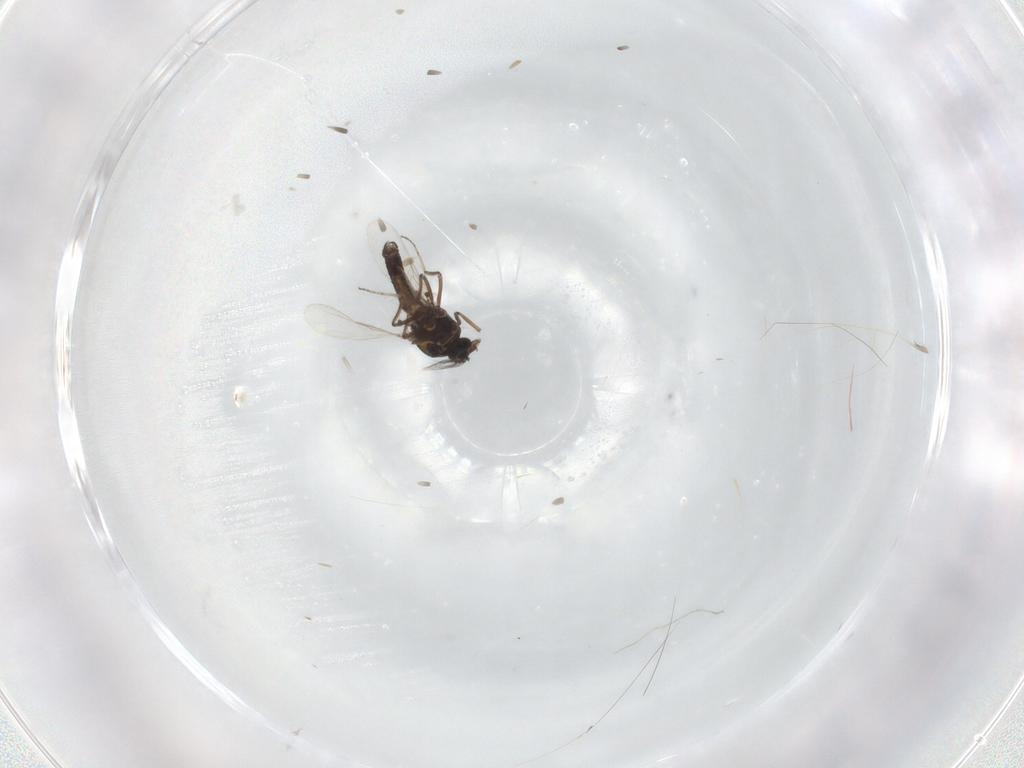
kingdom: Animalia
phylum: Arthropoda
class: Insecta
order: Diptera
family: Ceratopogonidae
